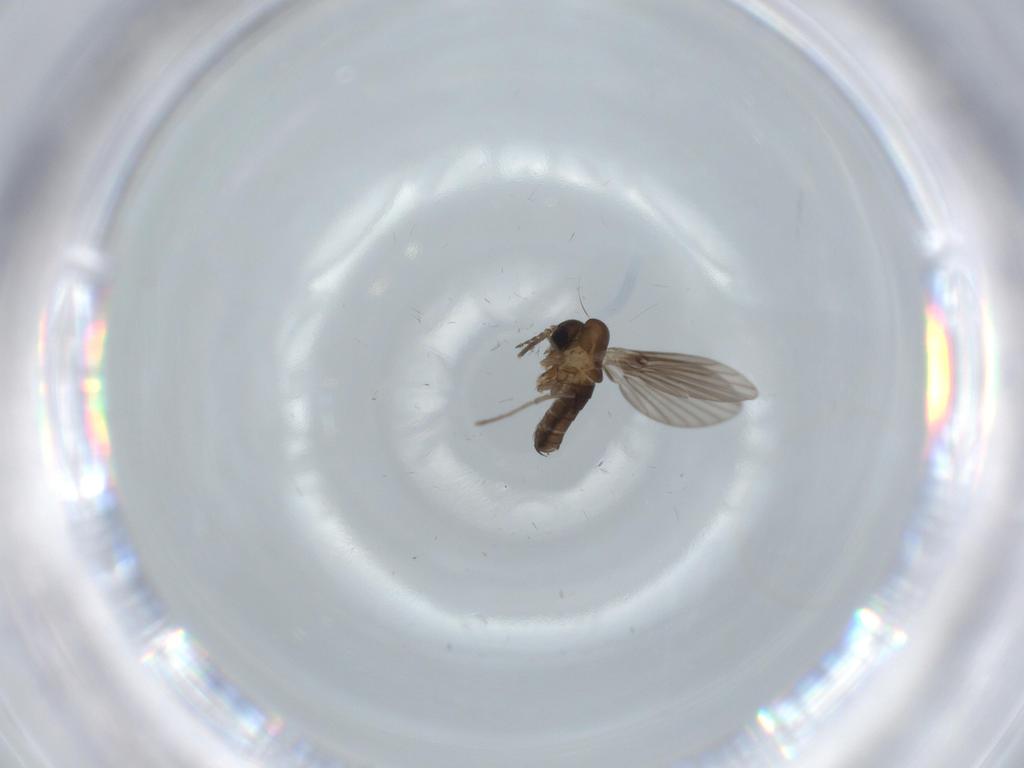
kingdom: Animalia
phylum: Arthropoda
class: Insecta
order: Diptera
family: Psychodidae
